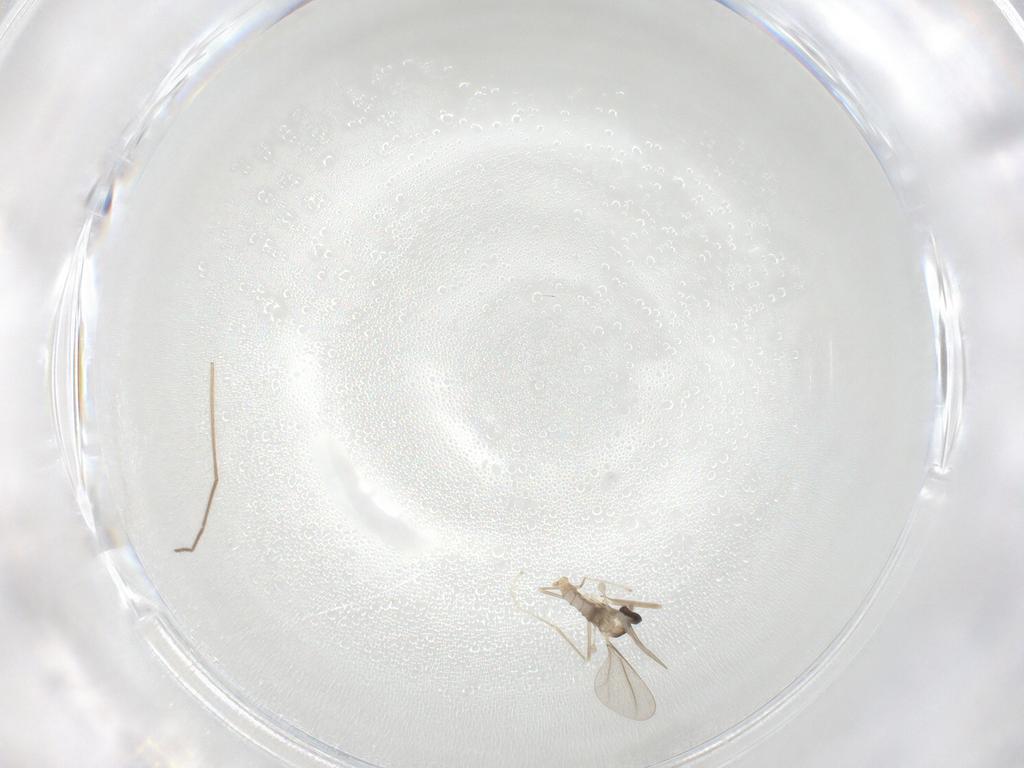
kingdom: Animalia
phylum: Arthropoda
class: Insecta
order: Diptera
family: Cecidomyiidae
